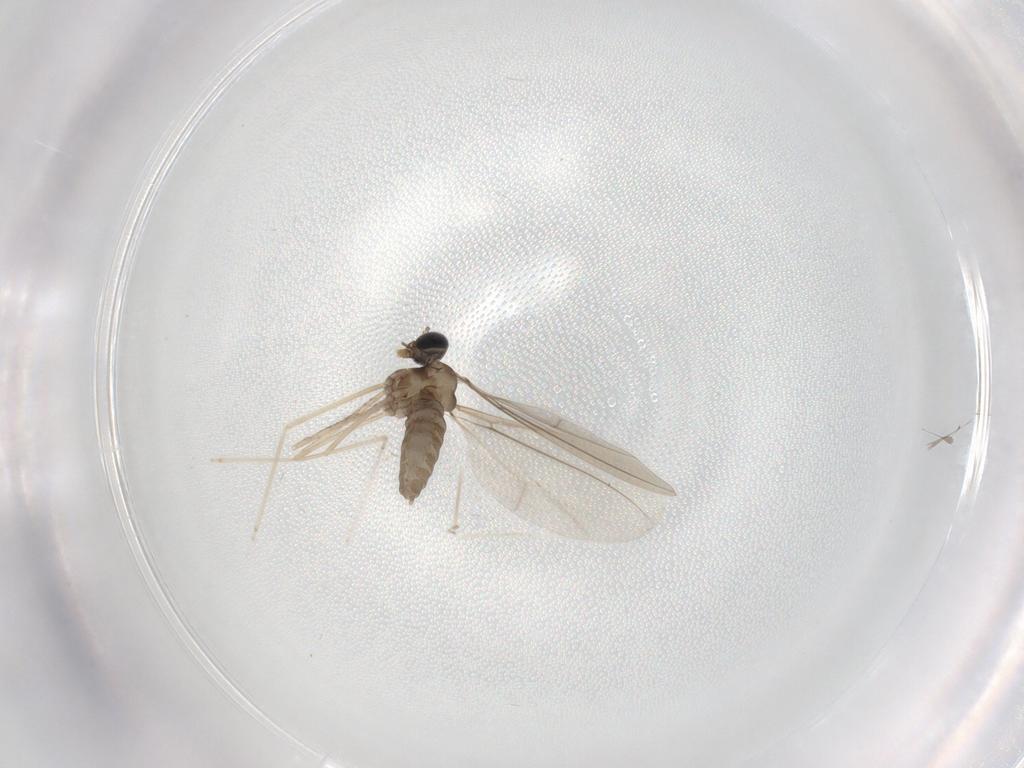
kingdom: Animalia
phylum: Arthropoda
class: Insecta
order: Diptera
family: Cecidomyiidae
